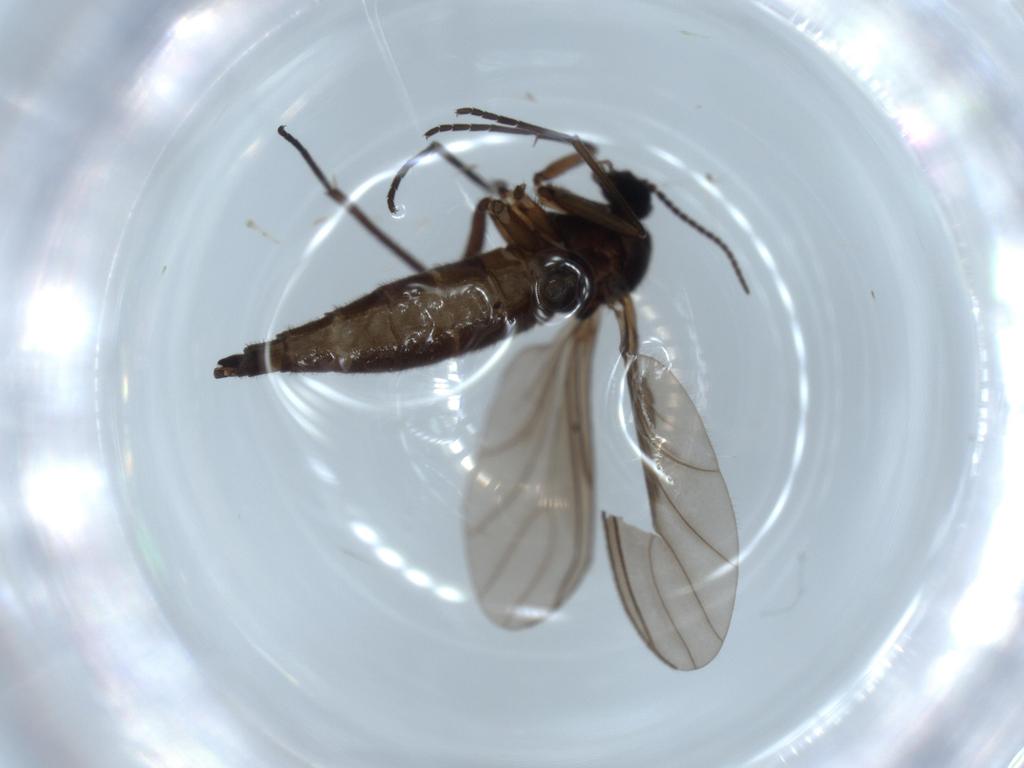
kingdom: Animalia
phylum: Arthropoda
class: Insecta
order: Diptera
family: Sciaridae
